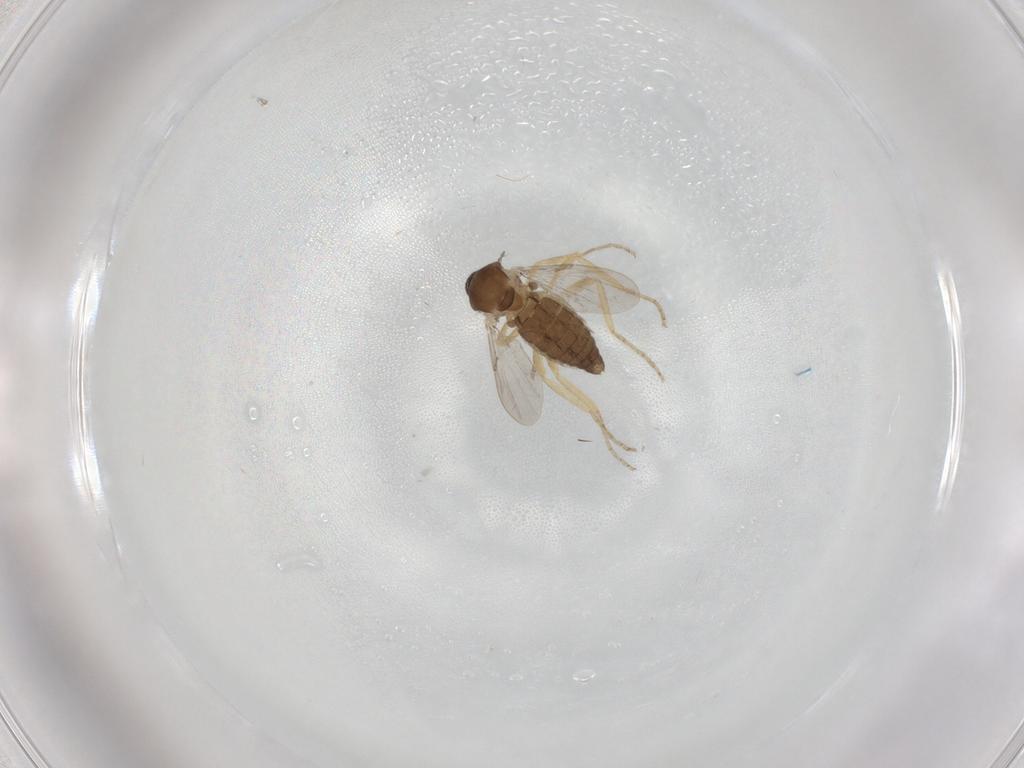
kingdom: Animalia
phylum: Arthropoda
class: Insecta
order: Diptera
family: Ceratopogonidae
